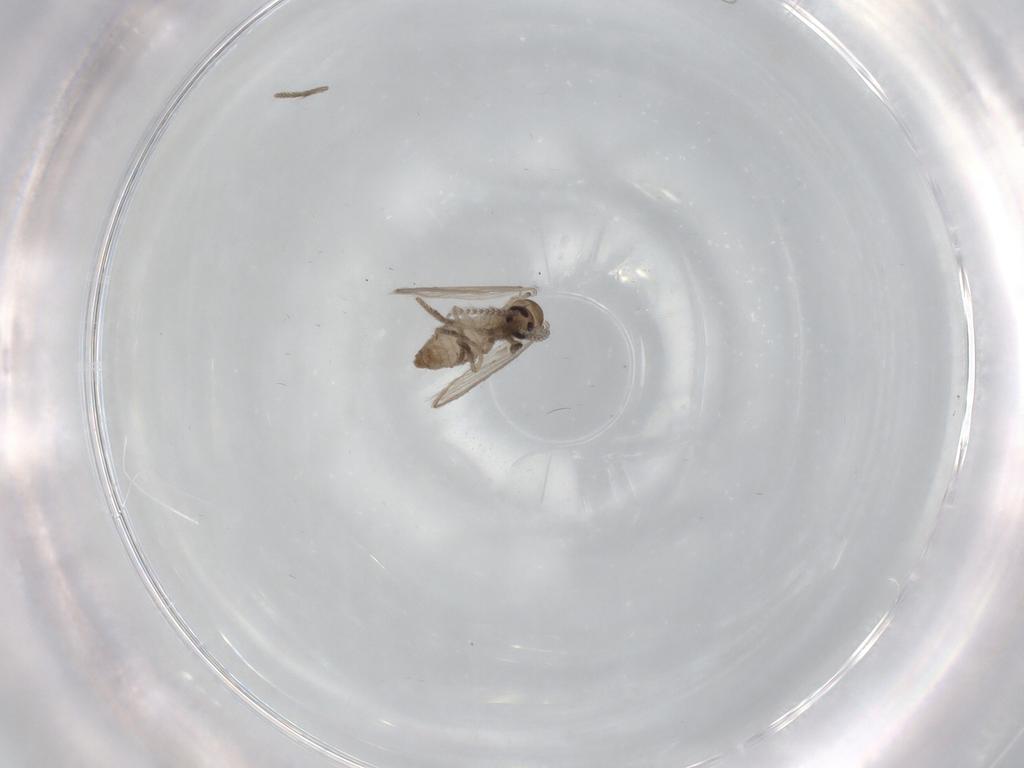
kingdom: Animalia
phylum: Arthropoda
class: Insecta
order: Diptera
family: Psychodidae
